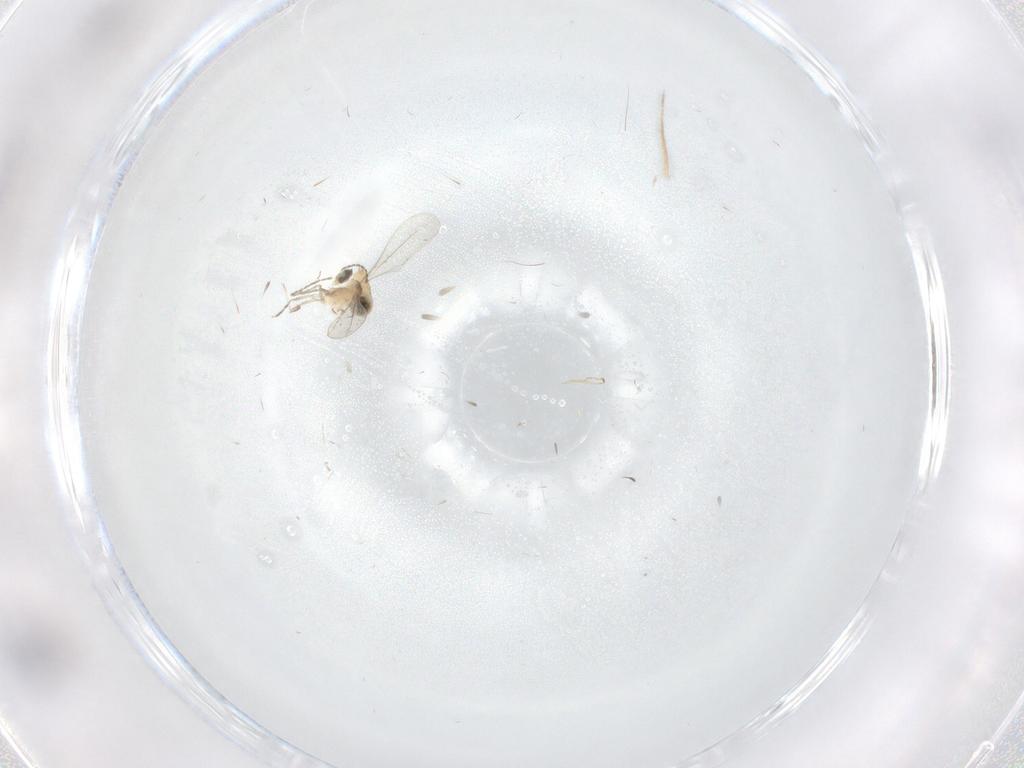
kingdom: Animalia
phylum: Arthropoda
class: Insecta
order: Diptera
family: Cecidomyiidae
